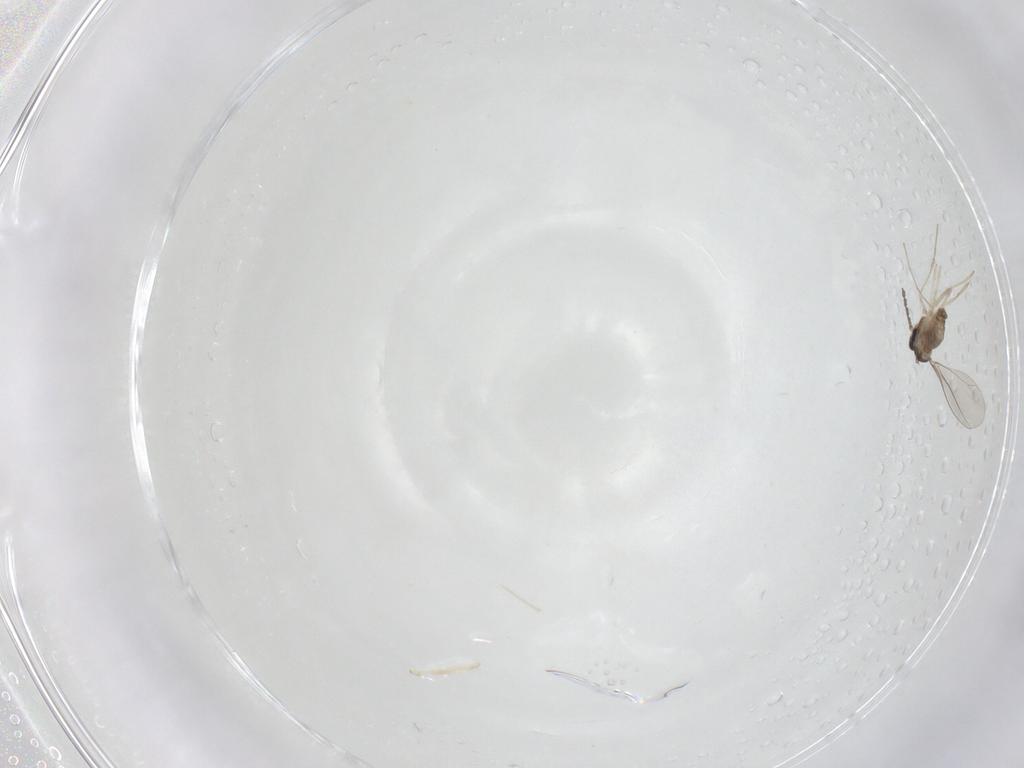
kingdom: Animalia
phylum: Arthropoda
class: Insecta
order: Diptera
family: Cecidomyiidae
